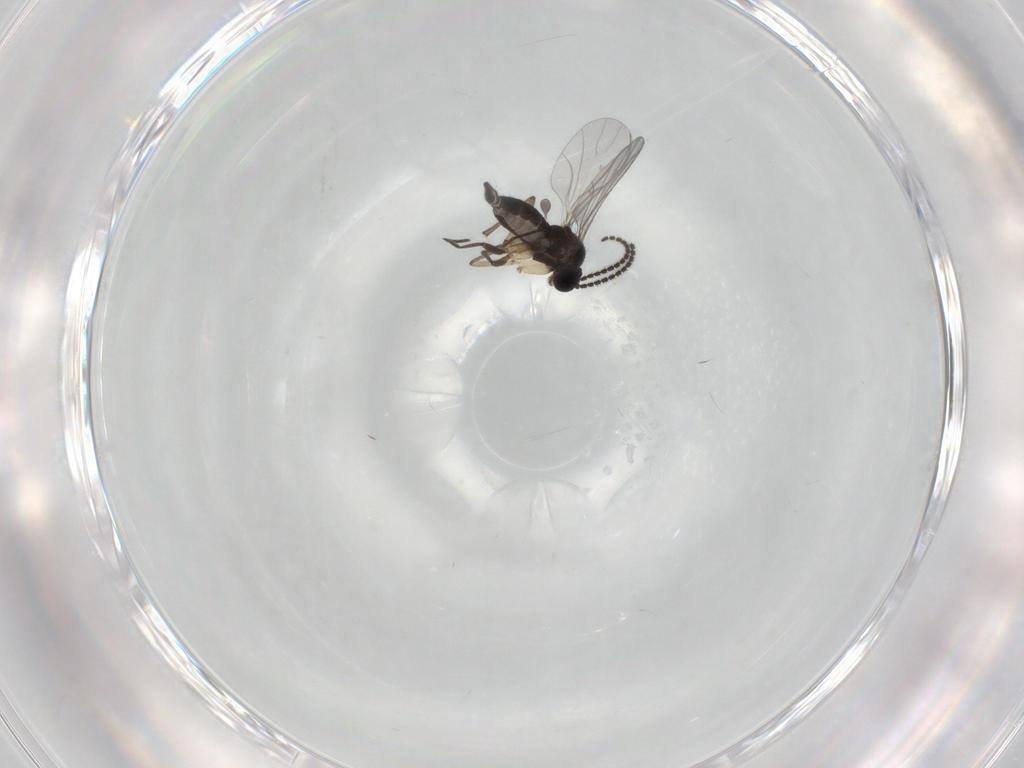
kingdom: Animalia
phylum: Arthropoda
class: Insecta
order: Diptera
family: Sciaridae
